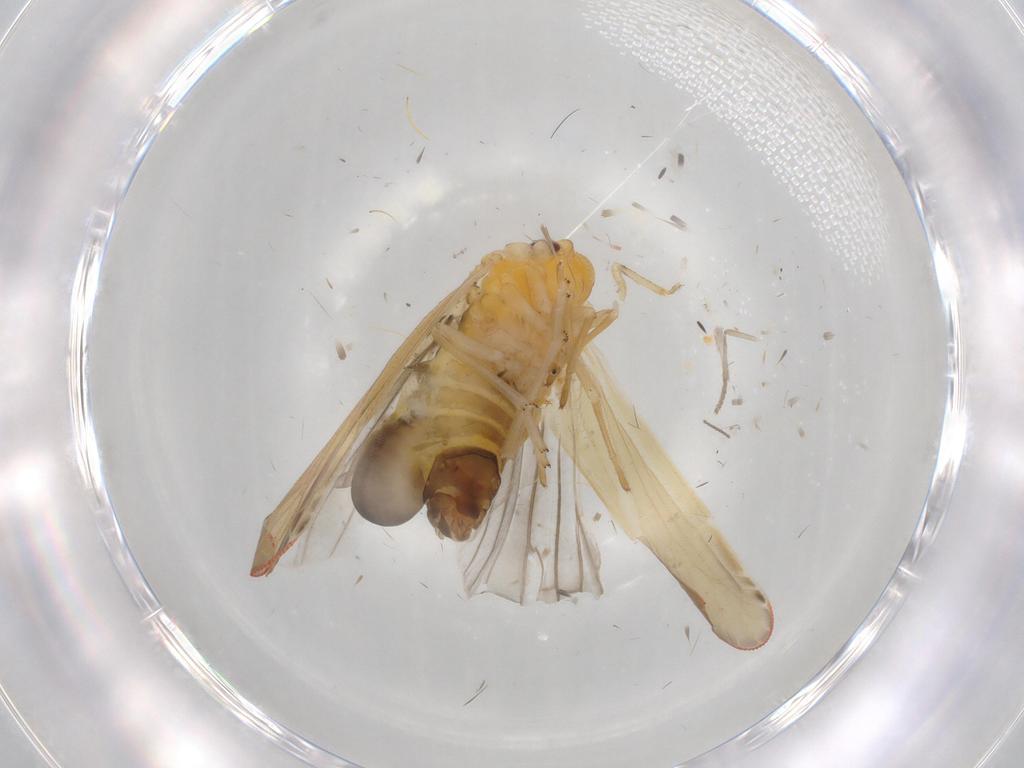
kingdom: Animalia
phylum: Arthropoda
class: Insecta
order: Hemiptera
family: Derbidae
